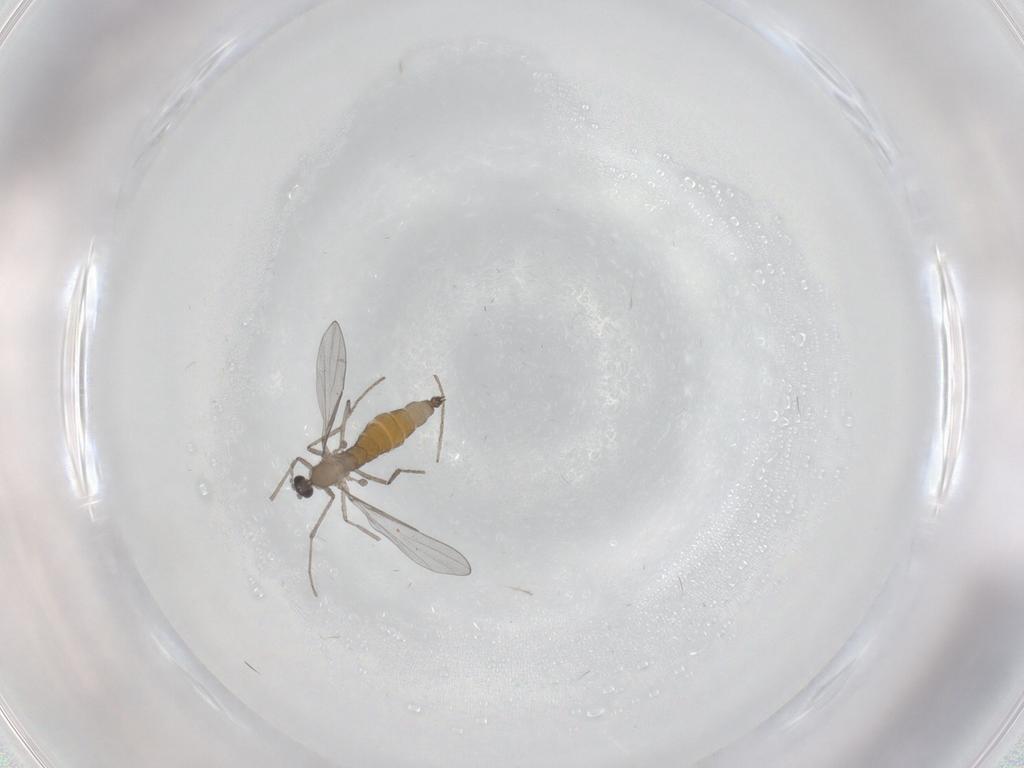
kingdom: Animalia
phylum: Arthropoda
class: Insecta
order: Diptera
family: Cecidomyiidae
